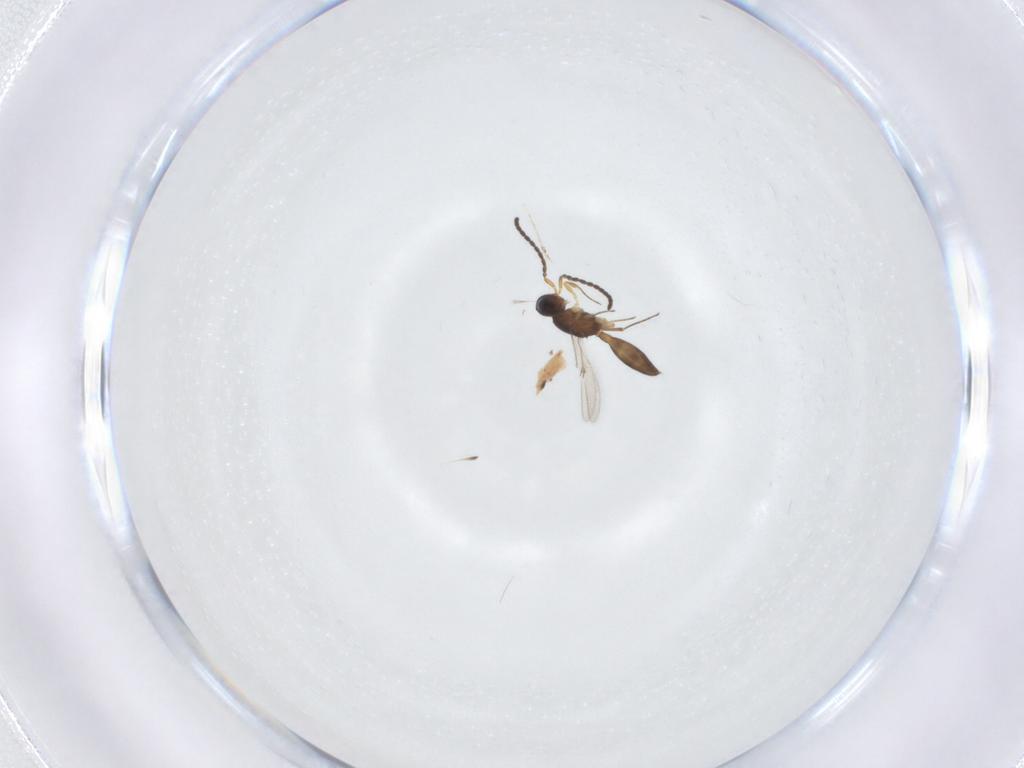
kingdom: Animalia
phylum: Arthropoda
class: Insecta
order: Hymenoptera
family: Scelionidae
